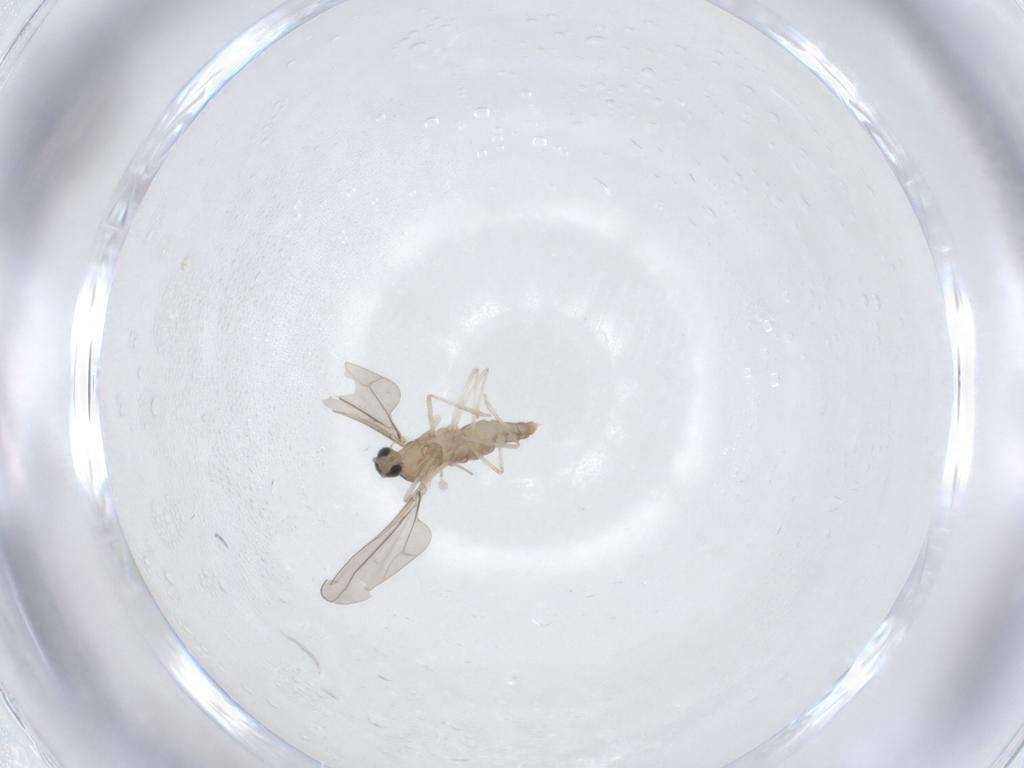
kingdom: Animalia
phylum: Arthropoda
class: Insecta
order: Diptera
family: Cecidomyiidae
